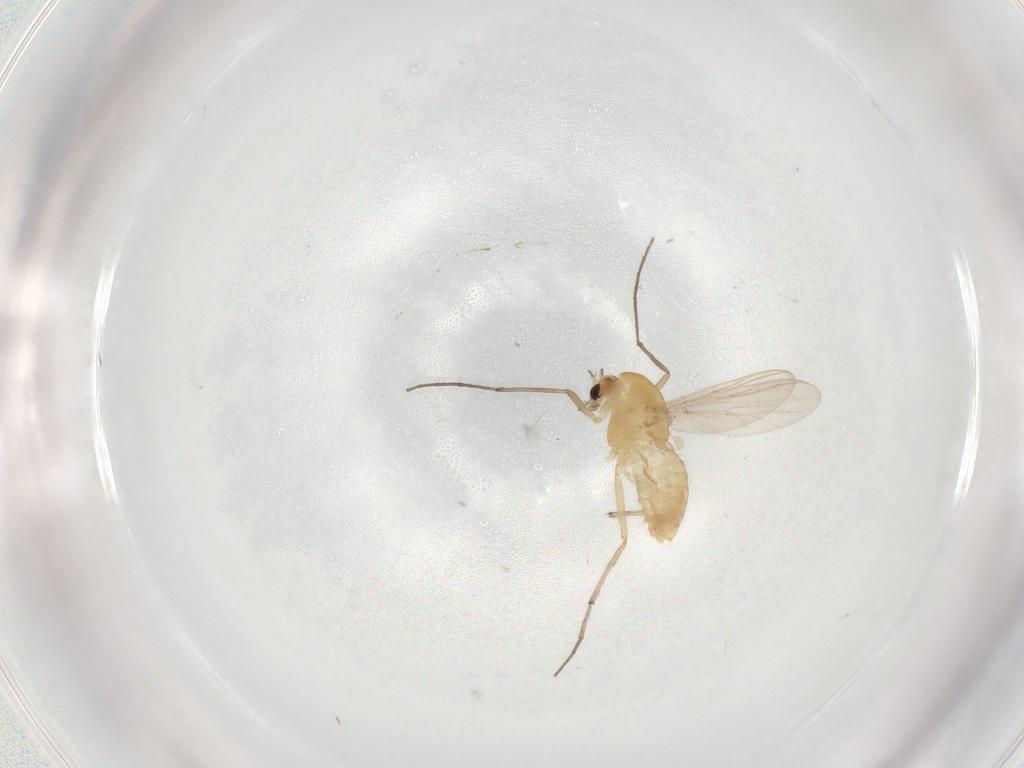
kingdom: Animalia
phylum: Arthropoda
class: Insecta
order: Diptera
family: Chironomidae
